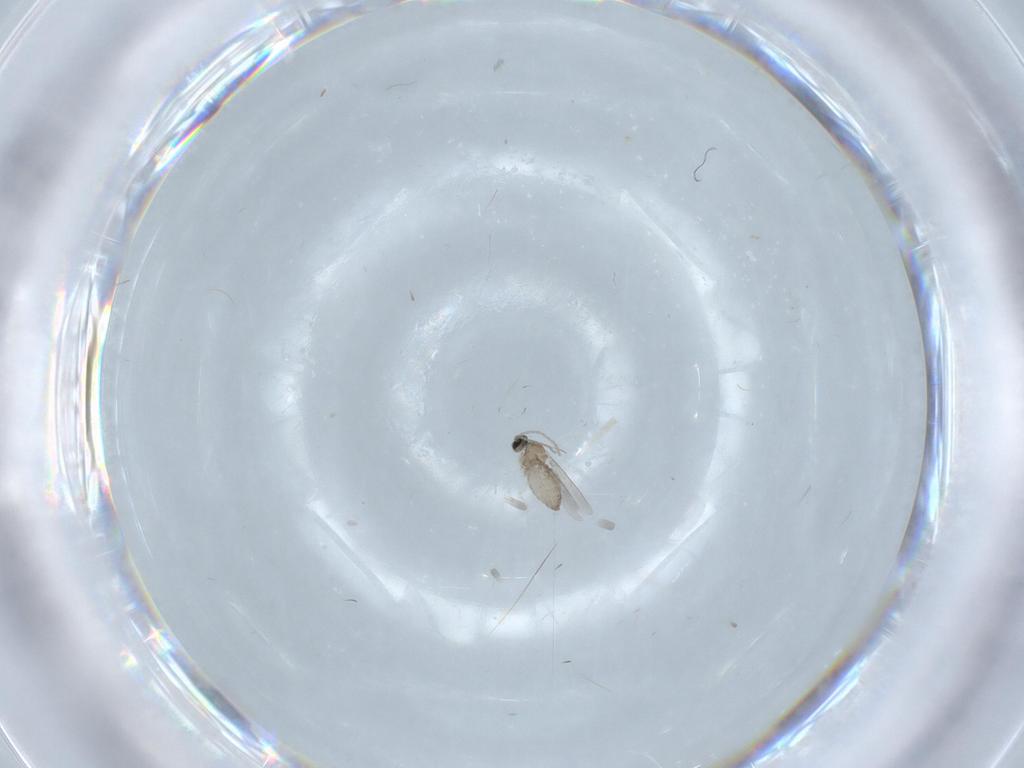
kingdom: Animalia
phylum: Arthropoda
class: Insecta
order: Diptera
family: Cecidomyiidae
